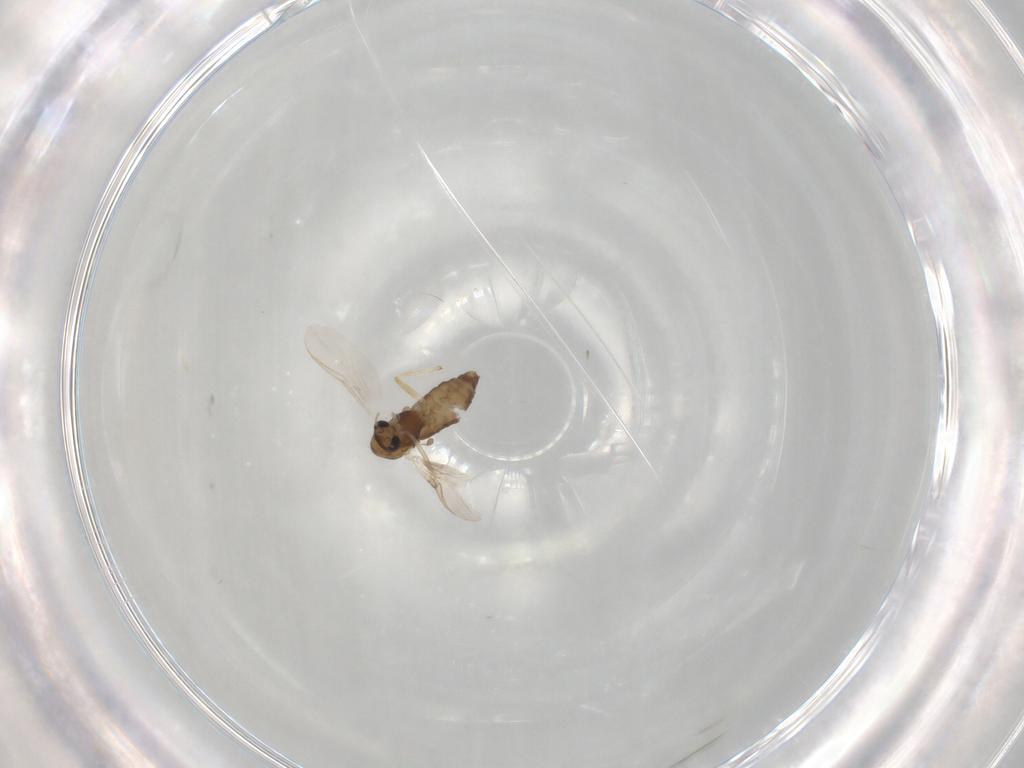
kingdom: Animalia
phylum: Arthropoda
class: Insecta
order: Diptera
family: Chironomidae
